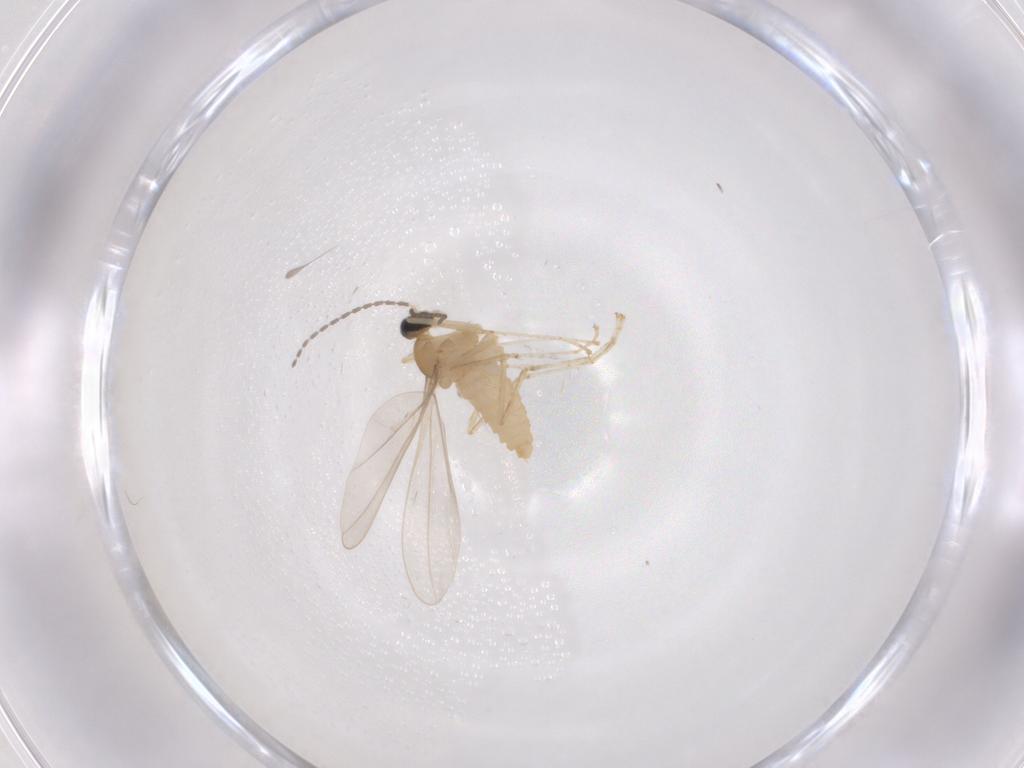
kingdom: Animalia
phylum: Arthropoda
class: Insecta
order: Diptera
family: Cecidomyiidae
